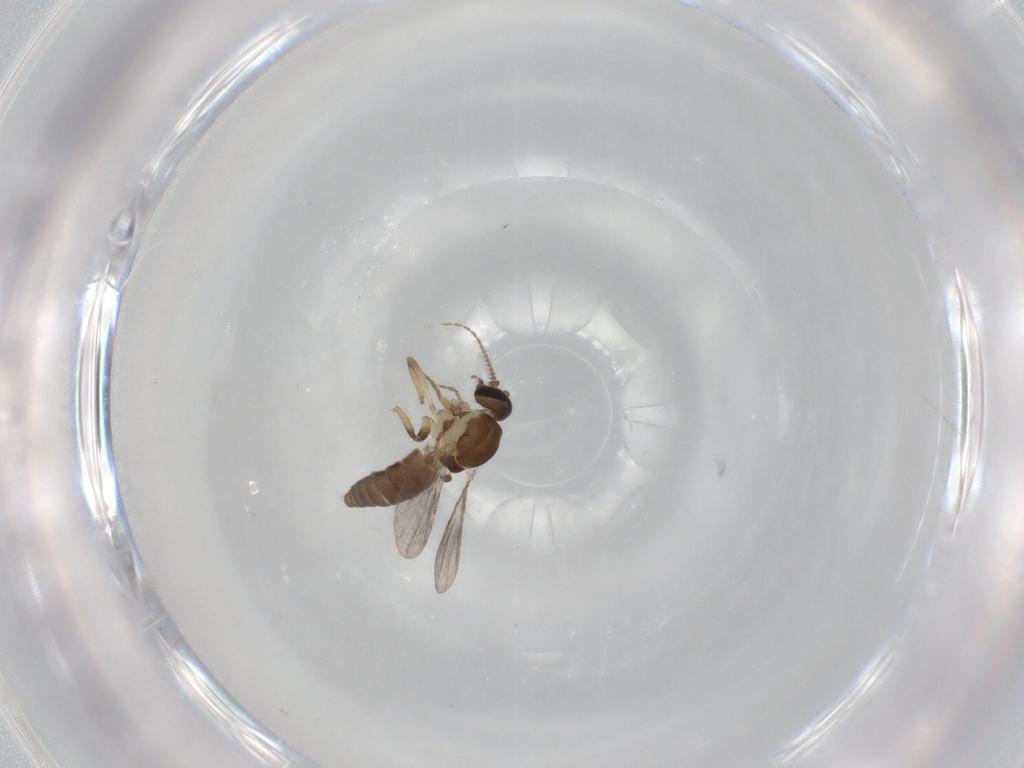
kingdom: Animalia
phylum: Arthropoda
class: Insecta
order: Diptera
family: Ceratopogonidae
